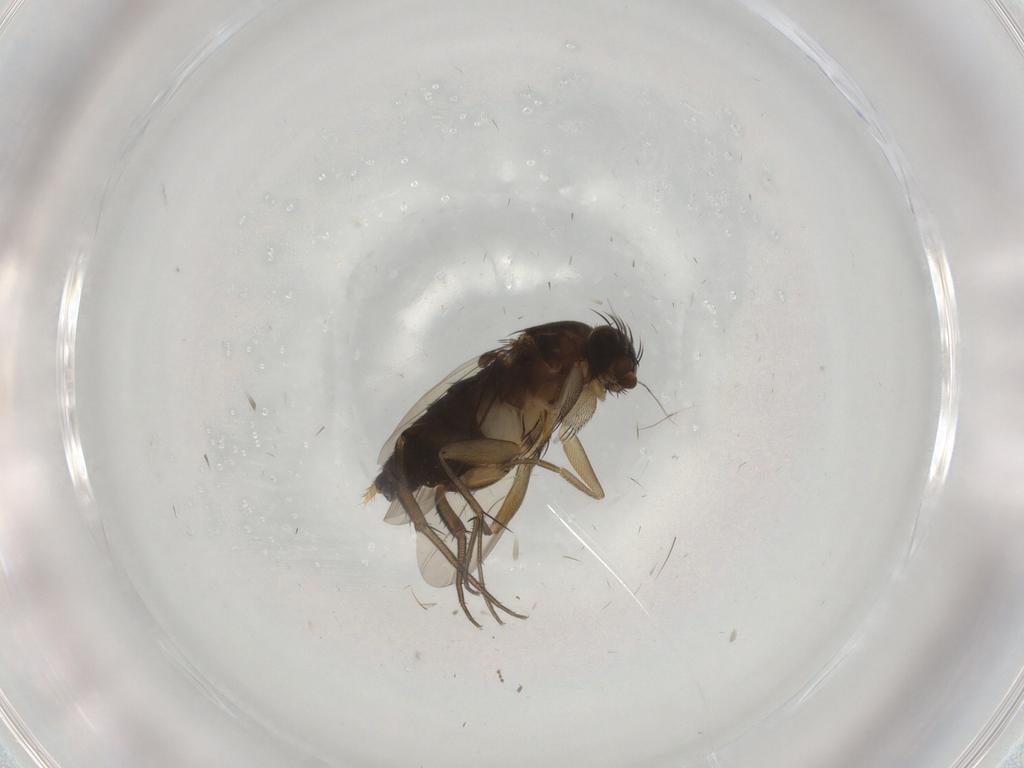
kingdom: Animalia
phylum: Arthropoda
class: Insecta
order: Diptera
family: Phoridae
